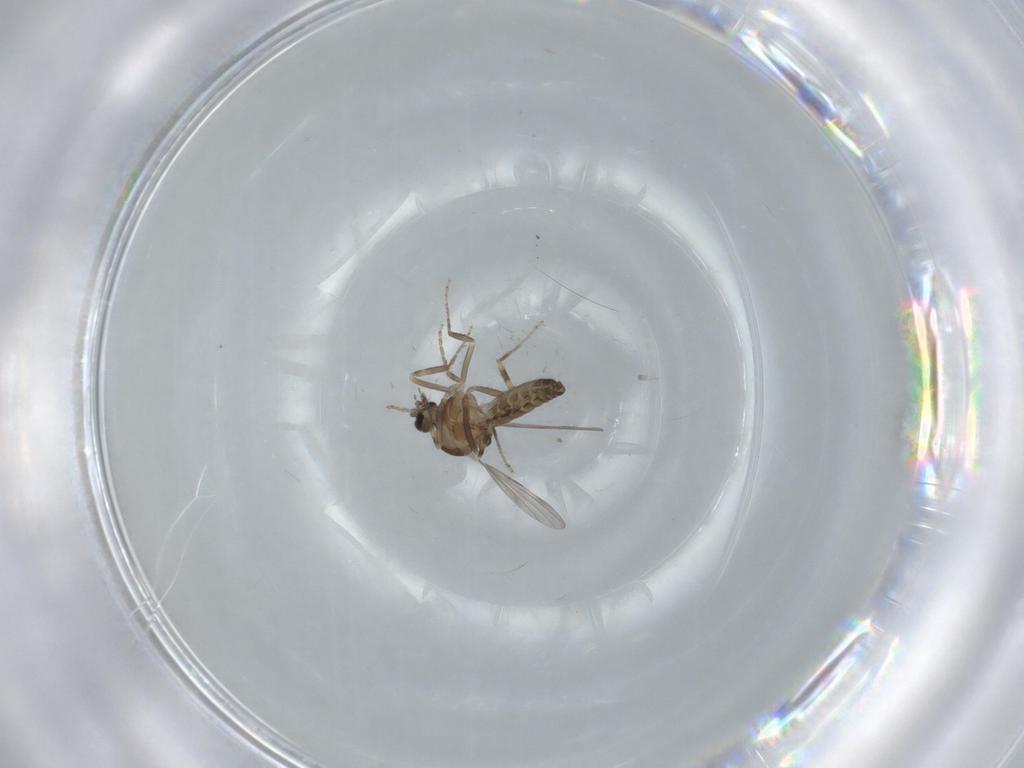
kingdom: Animalia
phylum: Arthropoda
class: Insecta
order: Diptera
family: Ceratopogonidae
